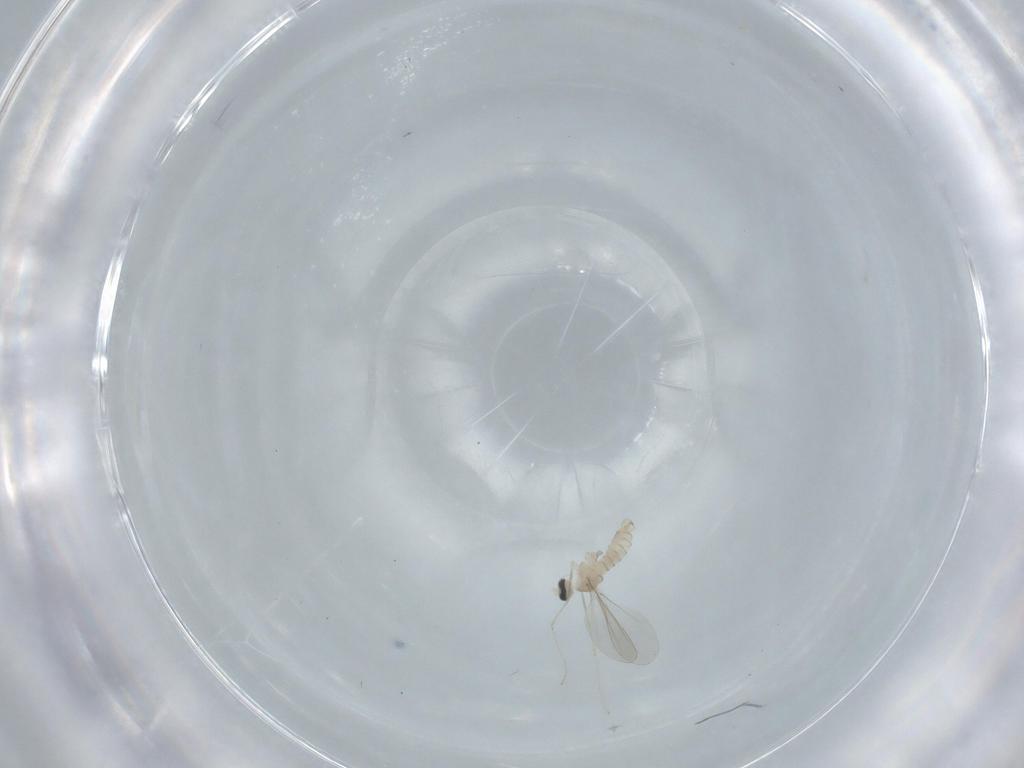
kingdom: Animalia
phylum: Arthropoda
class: Insecta
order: Diptera
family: Cecidomyiidae
